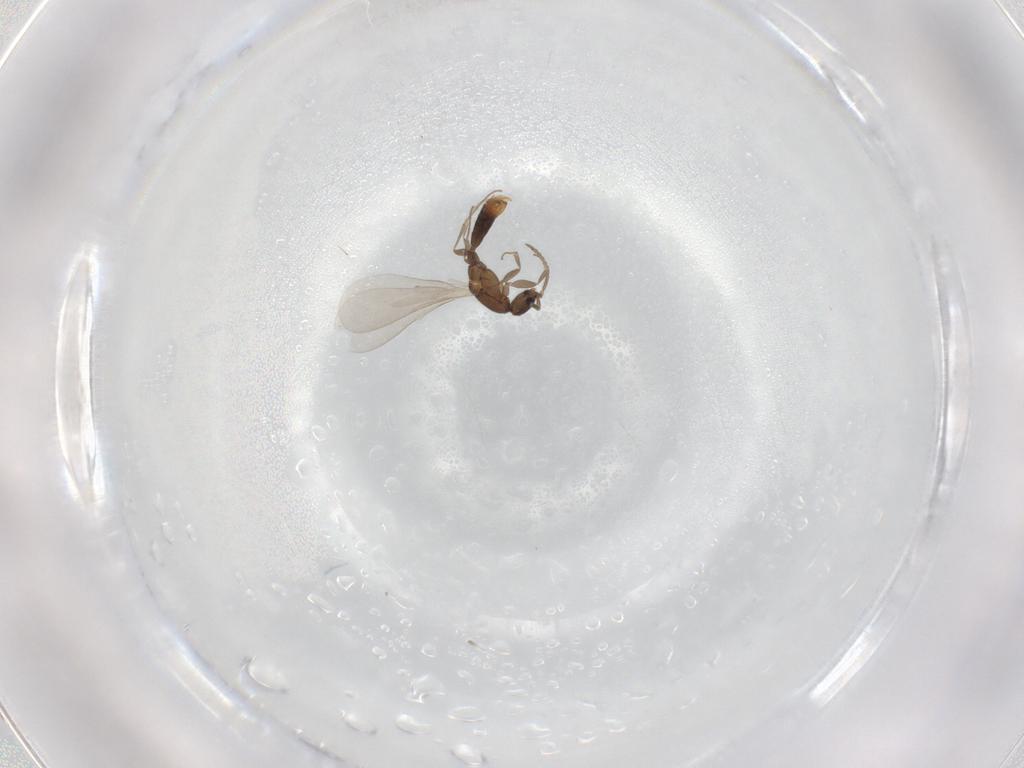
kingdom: Animalia
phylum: Arthropoda
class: Insecta
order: Hymenoptera
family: Formicidae
